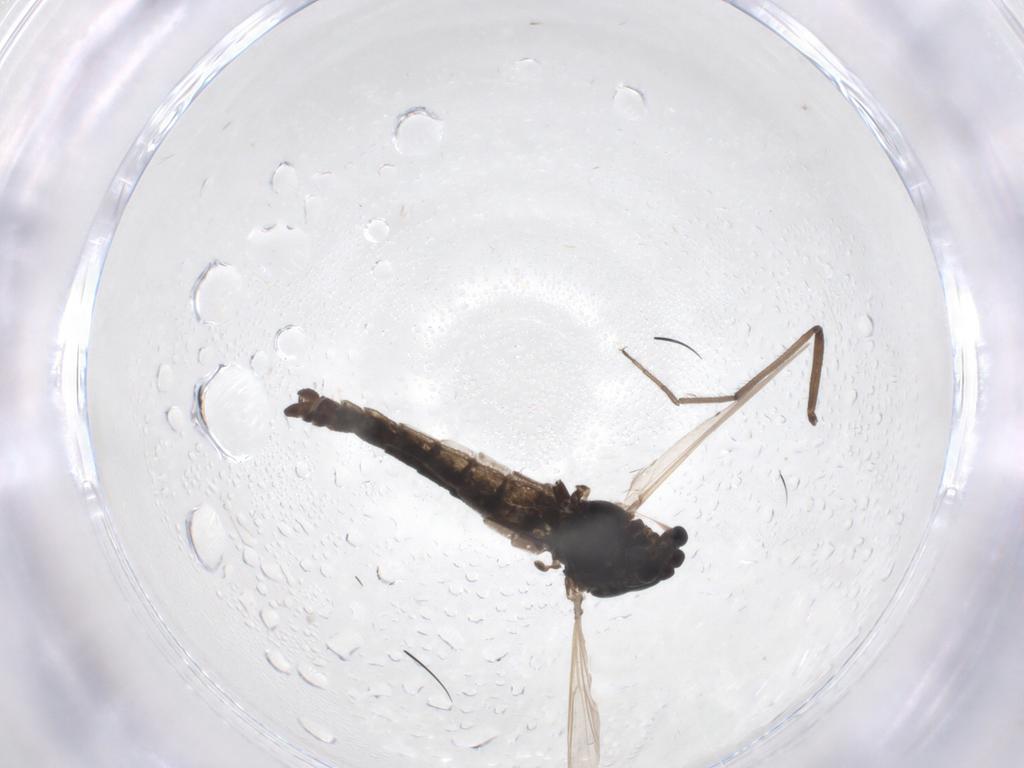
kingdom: Animalia
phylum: Arthropoda
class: Insecta
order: Diptera
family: Chironomidae
